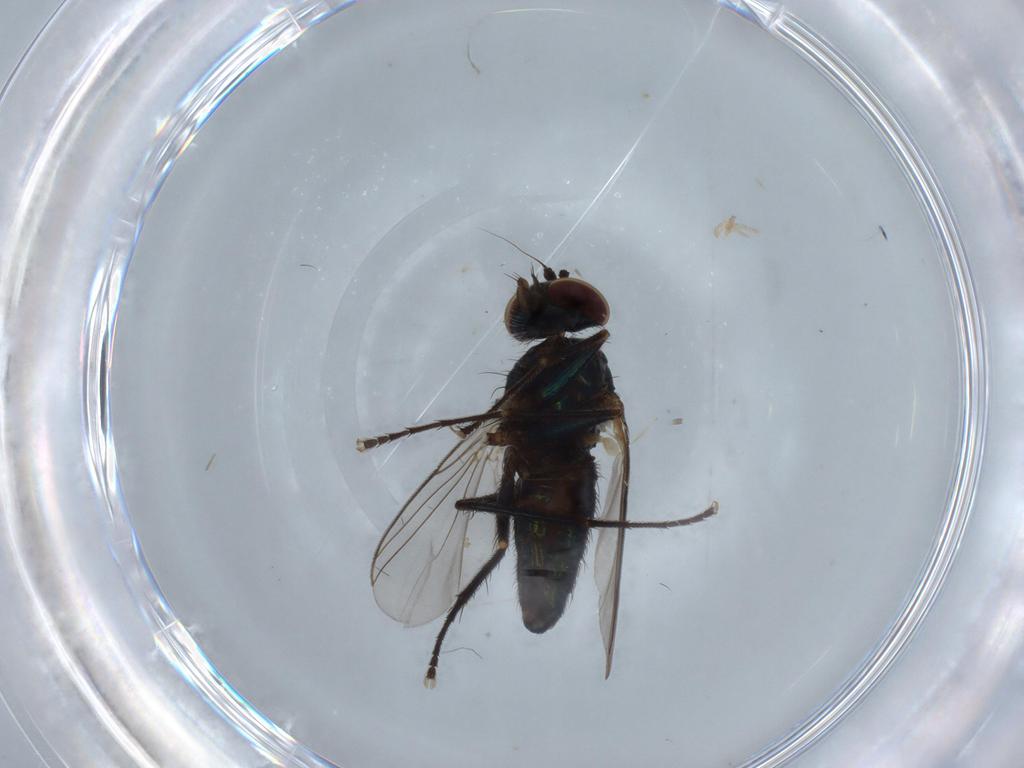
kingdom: Animalia
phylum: Arthropoda
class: Insecta
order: Diptera
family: Dolichopodidae
